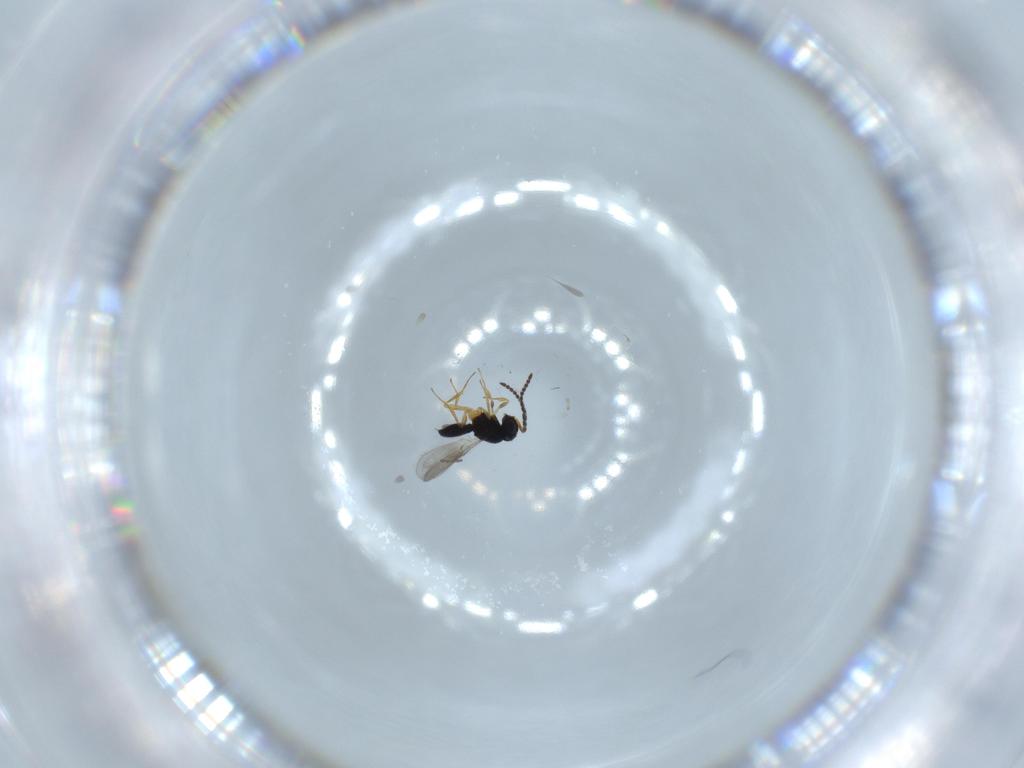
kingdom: Animalia
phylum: Arthropoda
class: Insecta
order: Hymenoptera
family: Scelionidae
